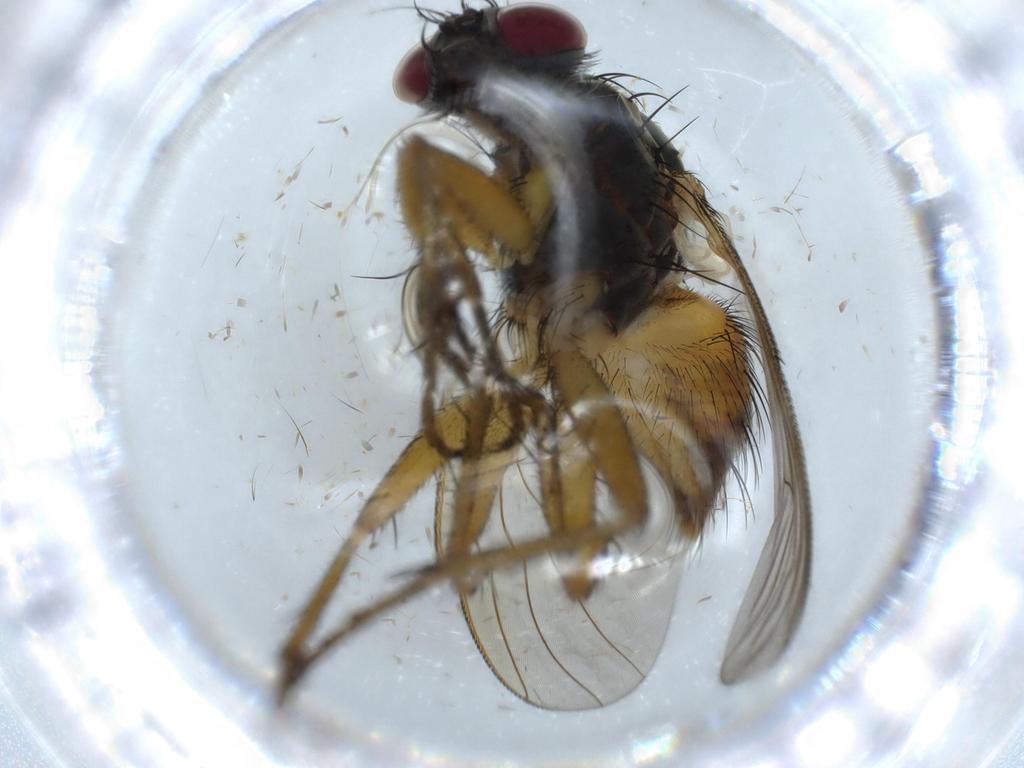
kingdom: Animalia
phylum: Arthropoda
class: Insecta
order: Diptera
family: Muscidae
